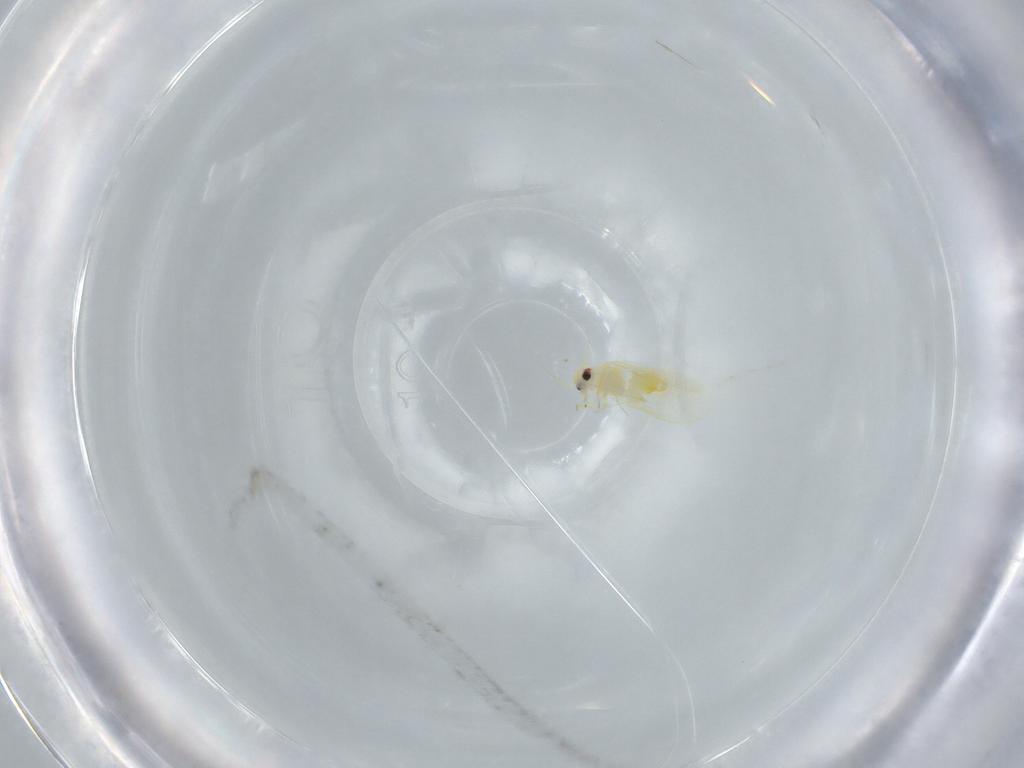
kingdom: Animalia
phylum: Arthropoda
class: Insecta
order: Hemiptera
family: Aleyrodidae
